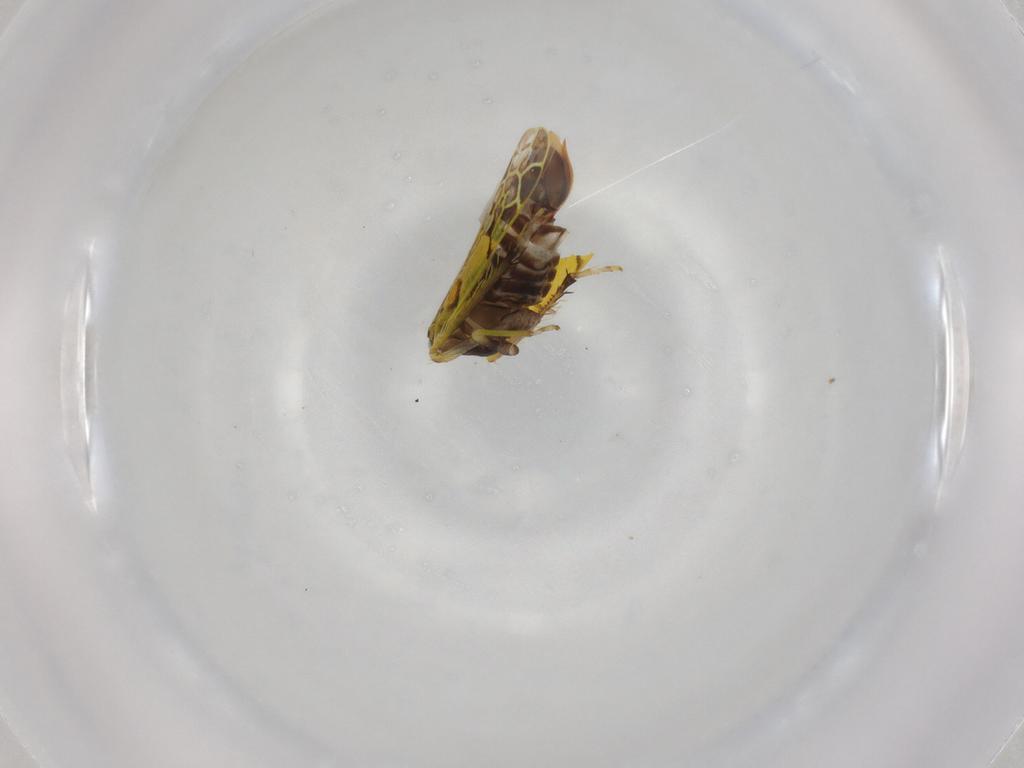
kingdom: Animalia
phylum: Arthropoda
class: Insecta
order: Hemiptera
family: Cicadellidae
